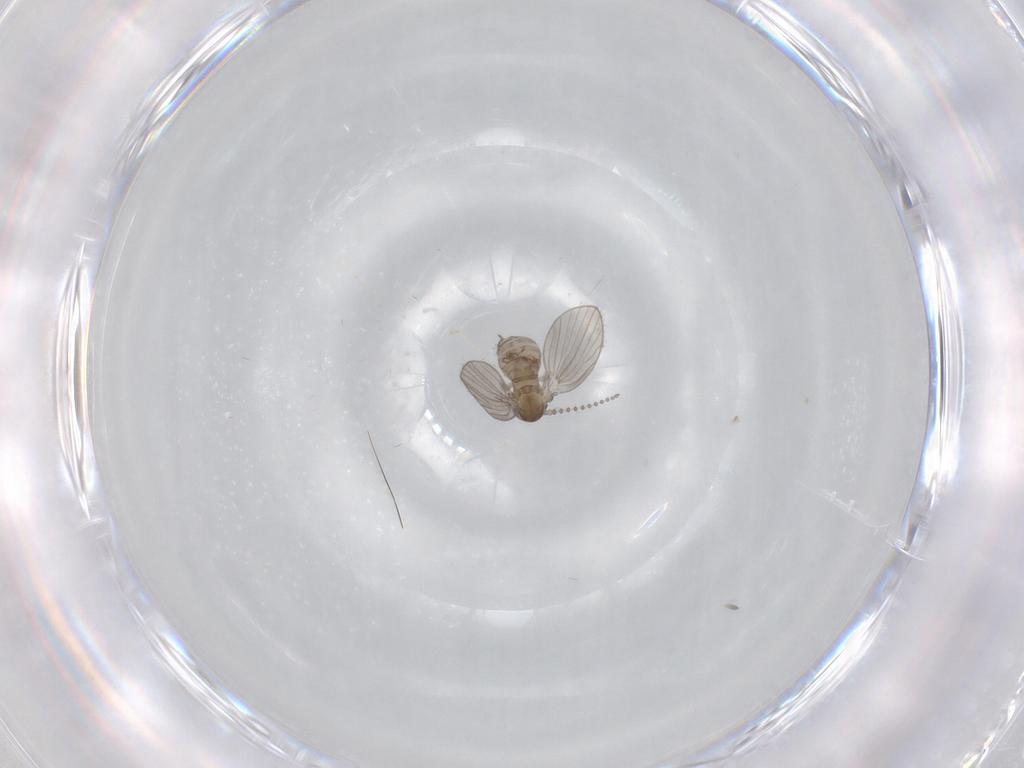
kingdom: Animalia
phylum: Arthropoda
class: Insecta
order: Diptera
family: Psychodidae
